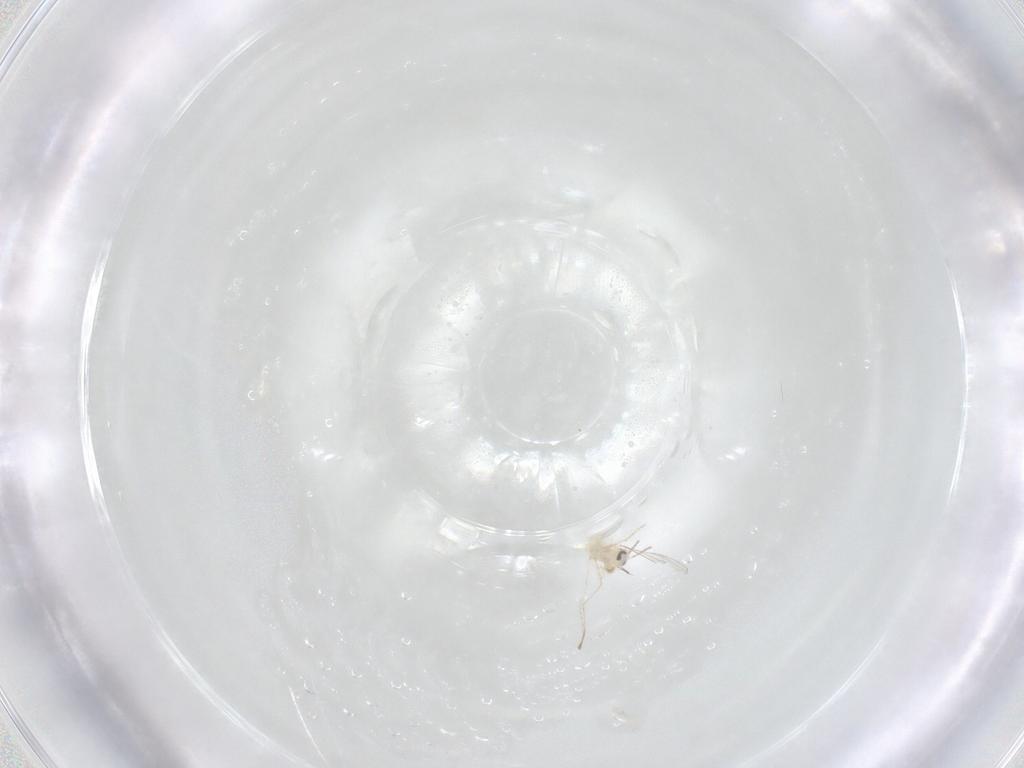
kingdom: Animalia
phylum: Arthropoda
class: Insecta
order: Diptera
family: Cecidomyiidae
